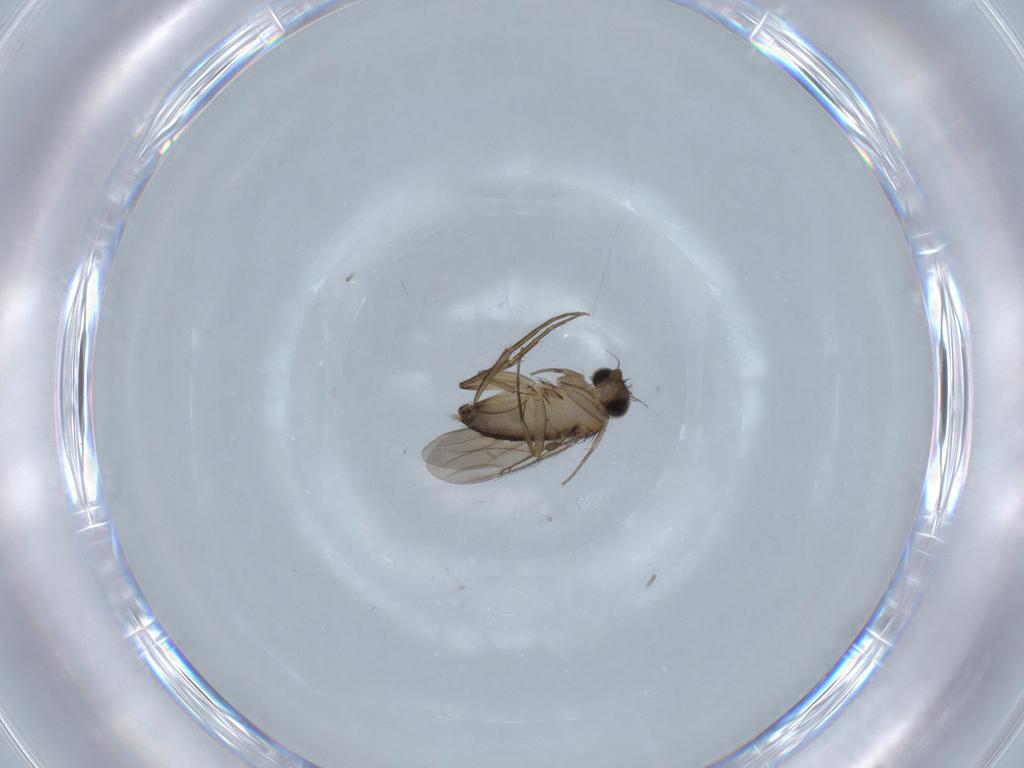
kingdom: Animalia
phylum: Arthropoda
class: Insecta
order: Diptera
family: Phoridae
